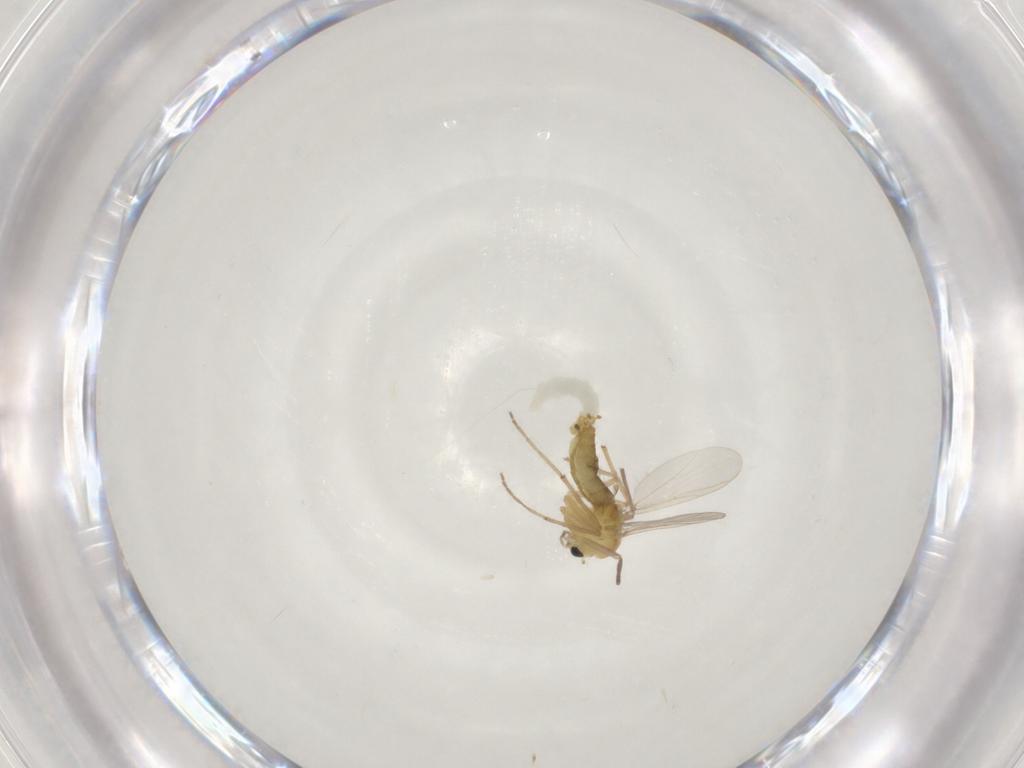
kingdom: Animalia
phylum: Arthropoda
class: Insecta
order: Diptera
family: Chironomidae
